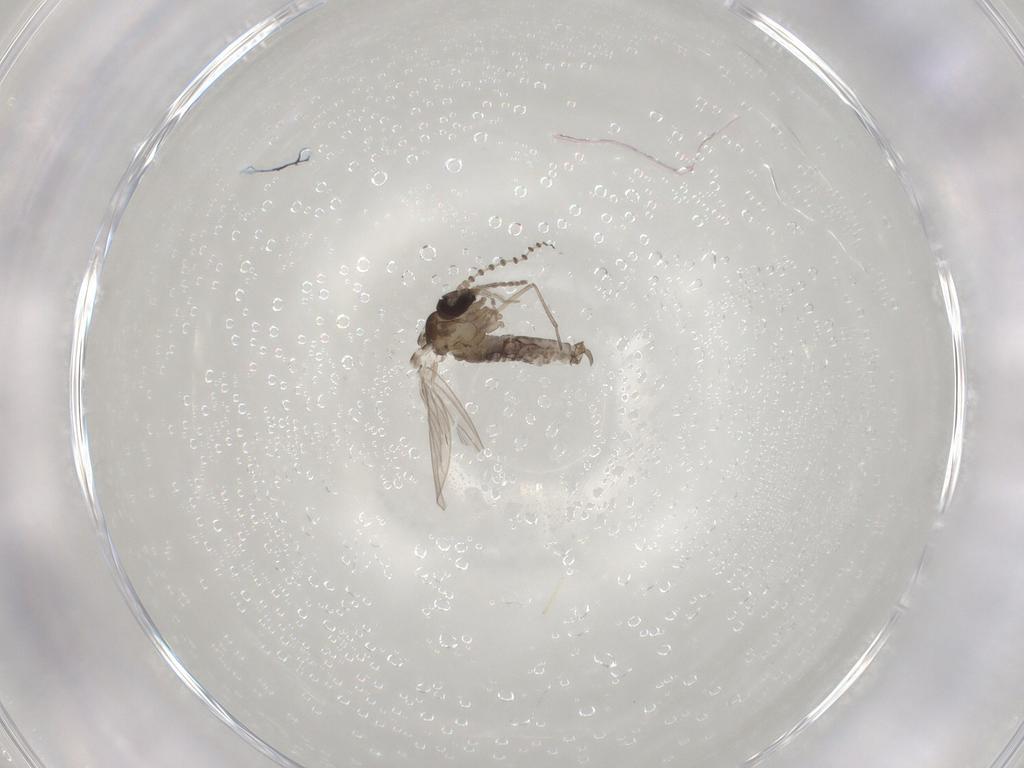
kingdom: Animalia
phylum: Arthropoda
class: Insecta
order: Diptera
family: Psychodidae
